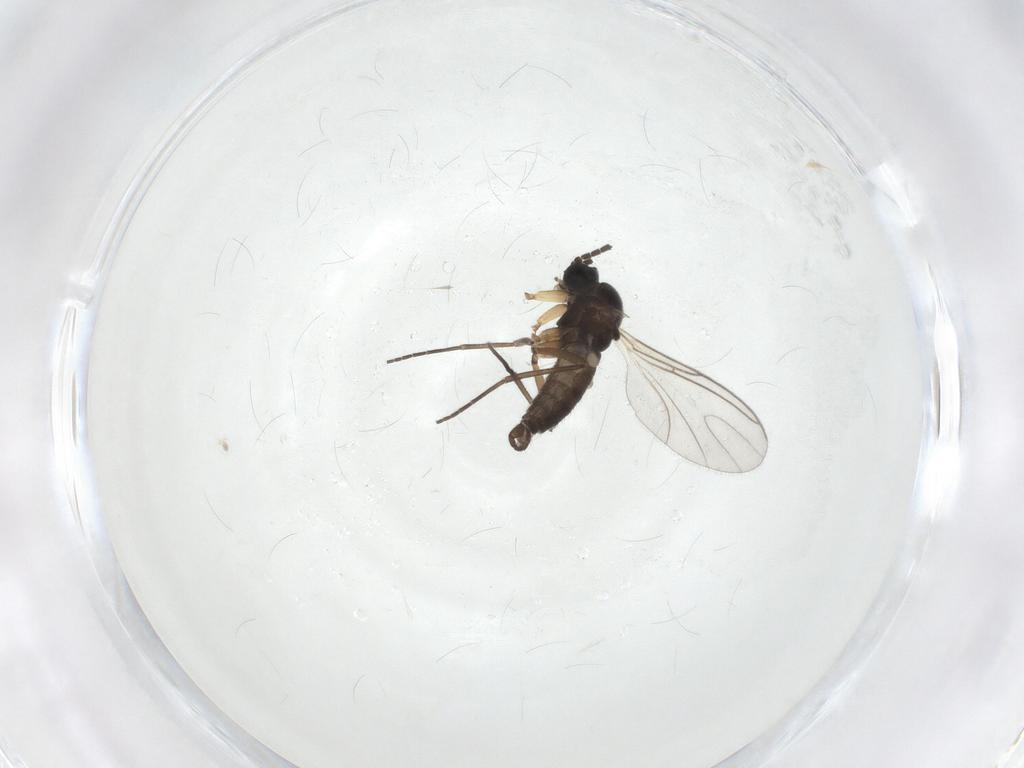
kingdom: Animalia
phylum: Arthropoda
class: Insecta
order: Diptera
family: Sciaridae
